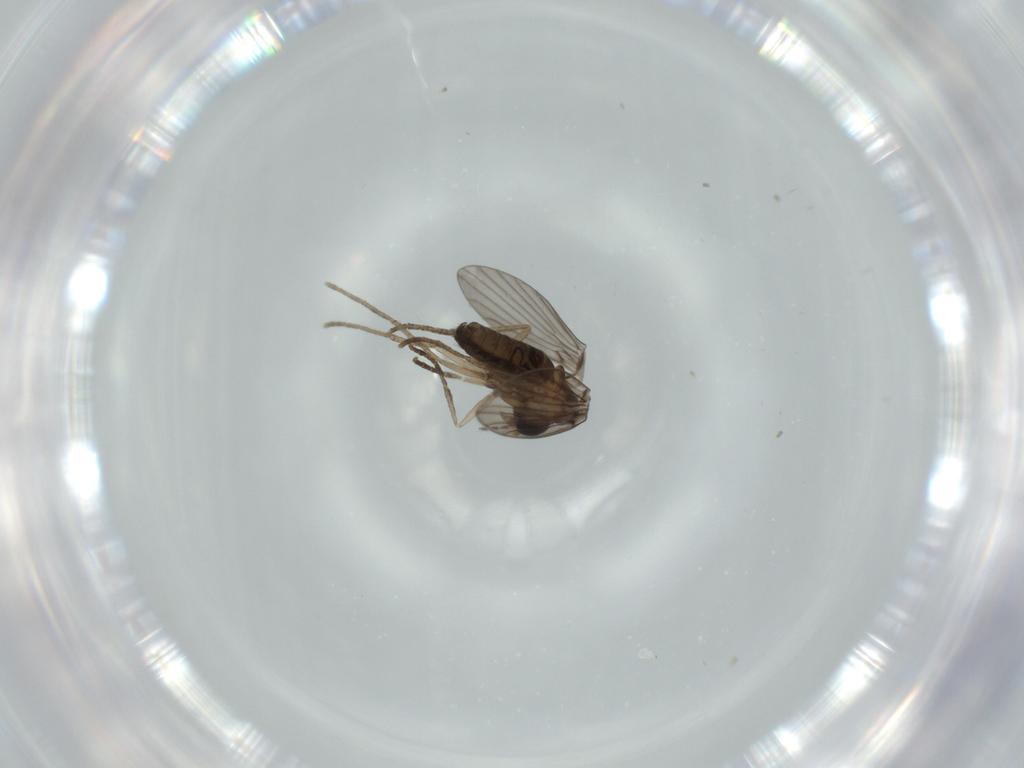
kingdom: Animalia
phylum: Arthropoda
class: Insecta
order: Diptera
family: Psychodidae
